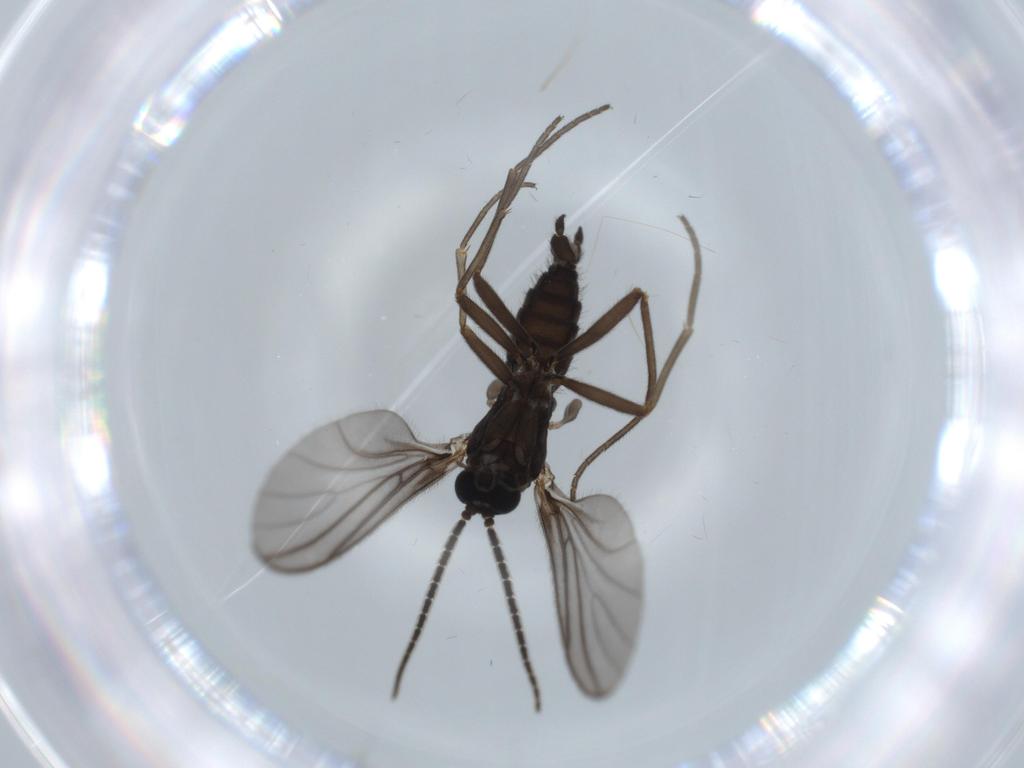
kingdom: Animalia
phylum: Arthropoda
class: Insecta
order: Diptera
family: Sciaridae
